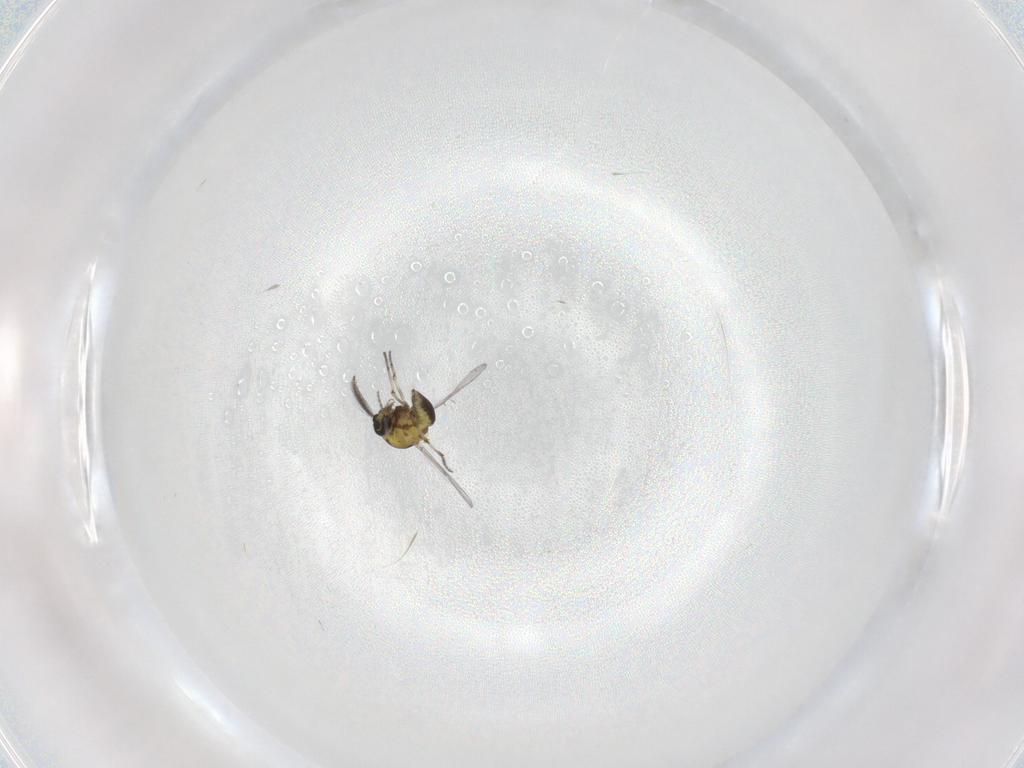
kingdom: Animalia
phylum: Arthropoda
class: Insecta
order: Diptera
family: Ceratopogonidae
